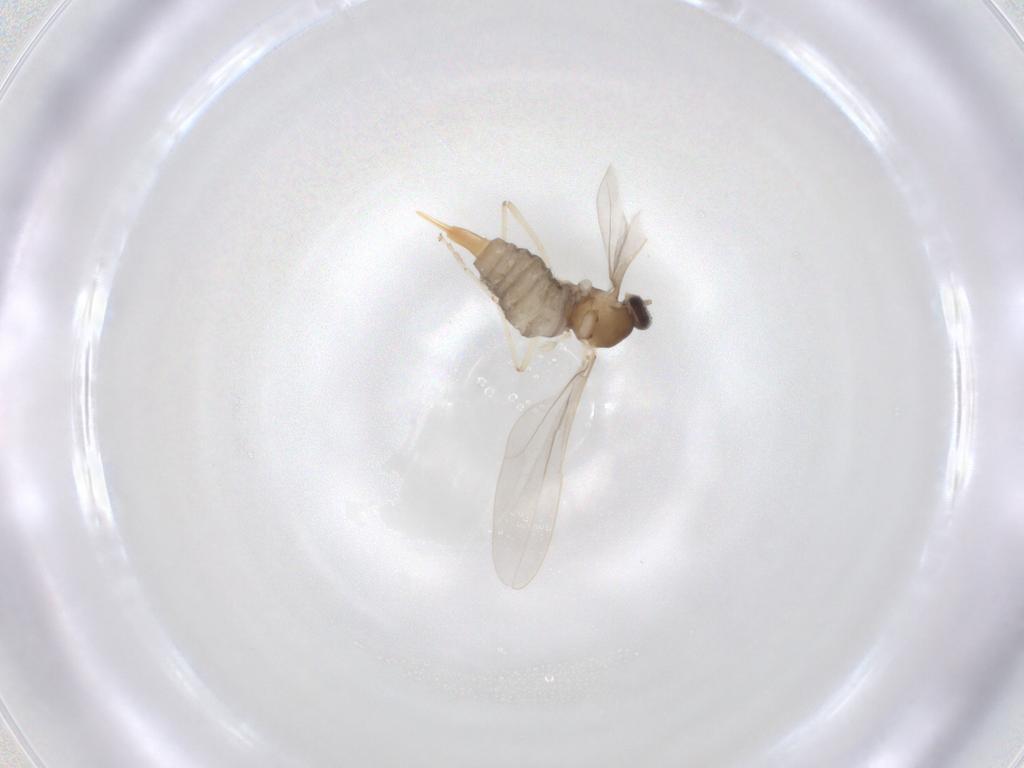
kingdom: Animalia
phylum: Arthropoda
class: Insecta
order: Diptera
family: Cecidomyiidae
